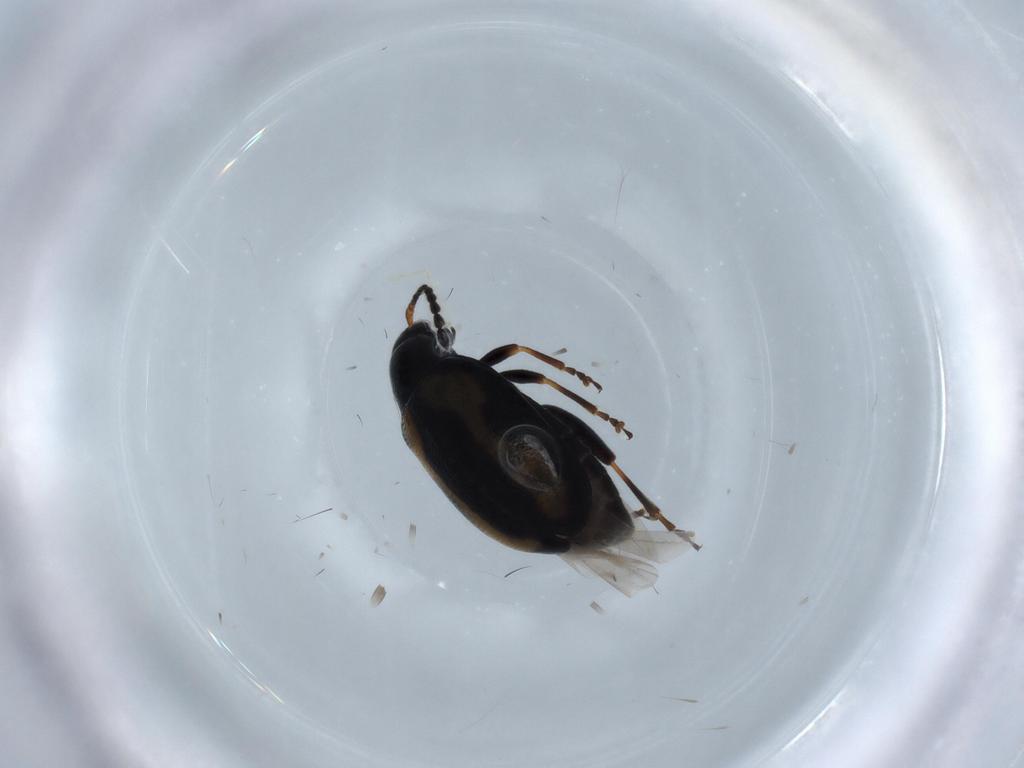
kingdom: Animalia
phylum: Arthropoda
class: Insecta
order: Coleoptera
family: Chrysomelidae
